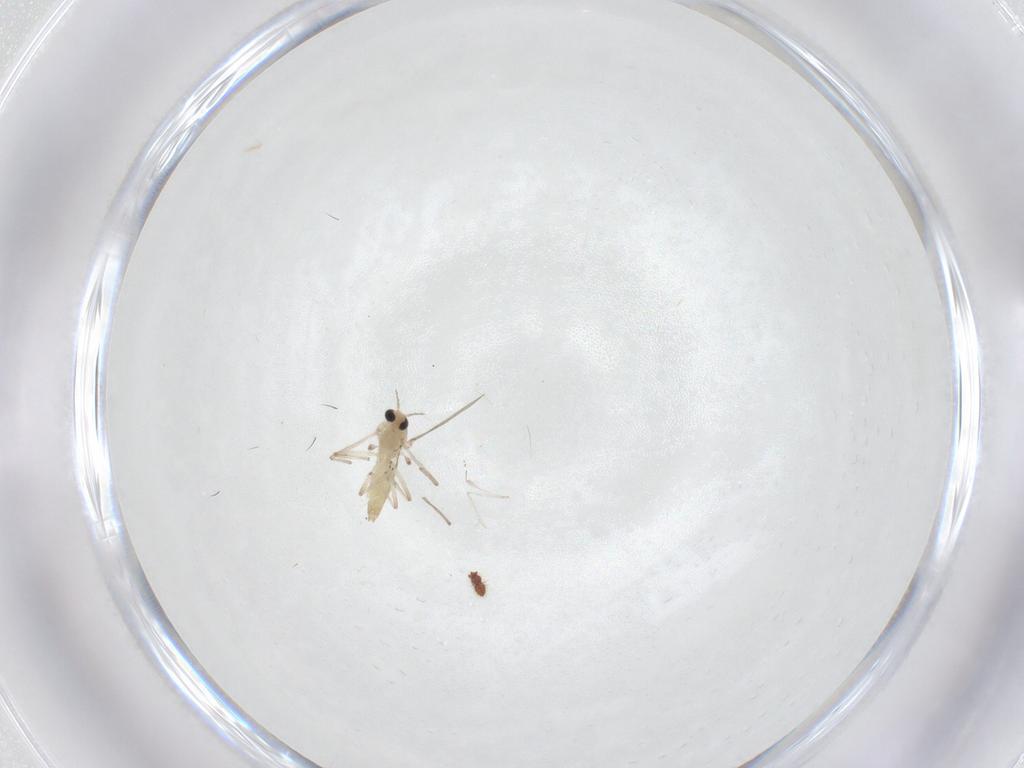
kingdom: Animalia
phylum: Arthropoda
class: Insecta
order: Diptera
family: Cecidomyiidae
